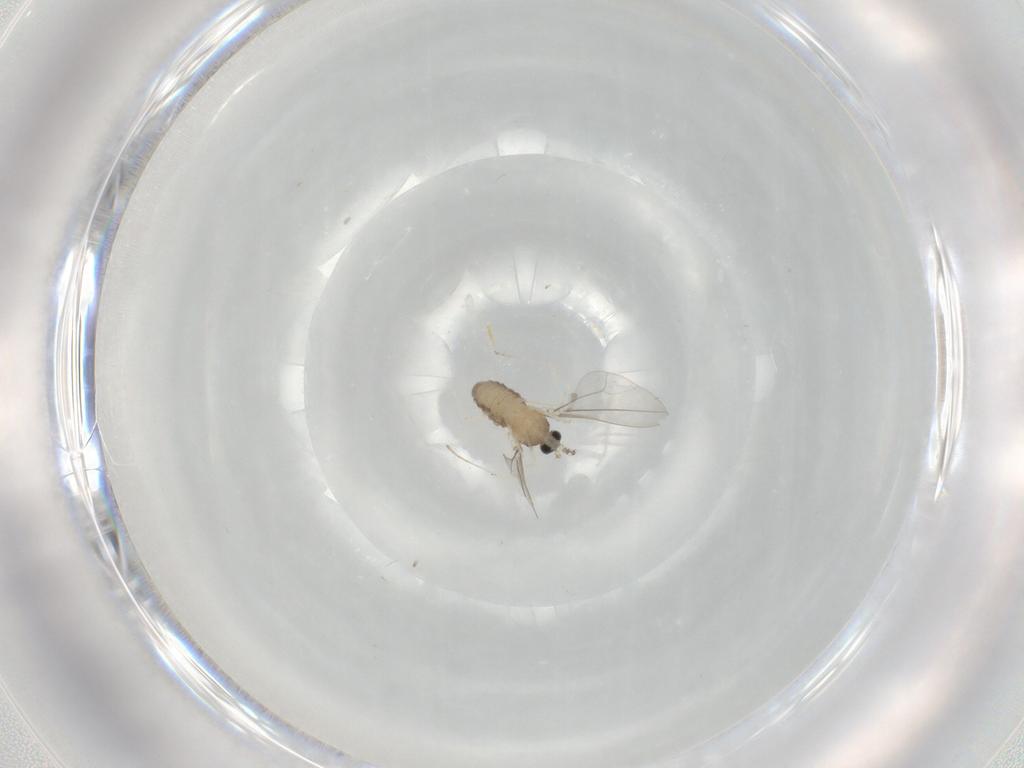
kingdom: Animalia
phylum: Arthropoda
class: Insecta
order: Diptera
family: Cecidomyiidae
